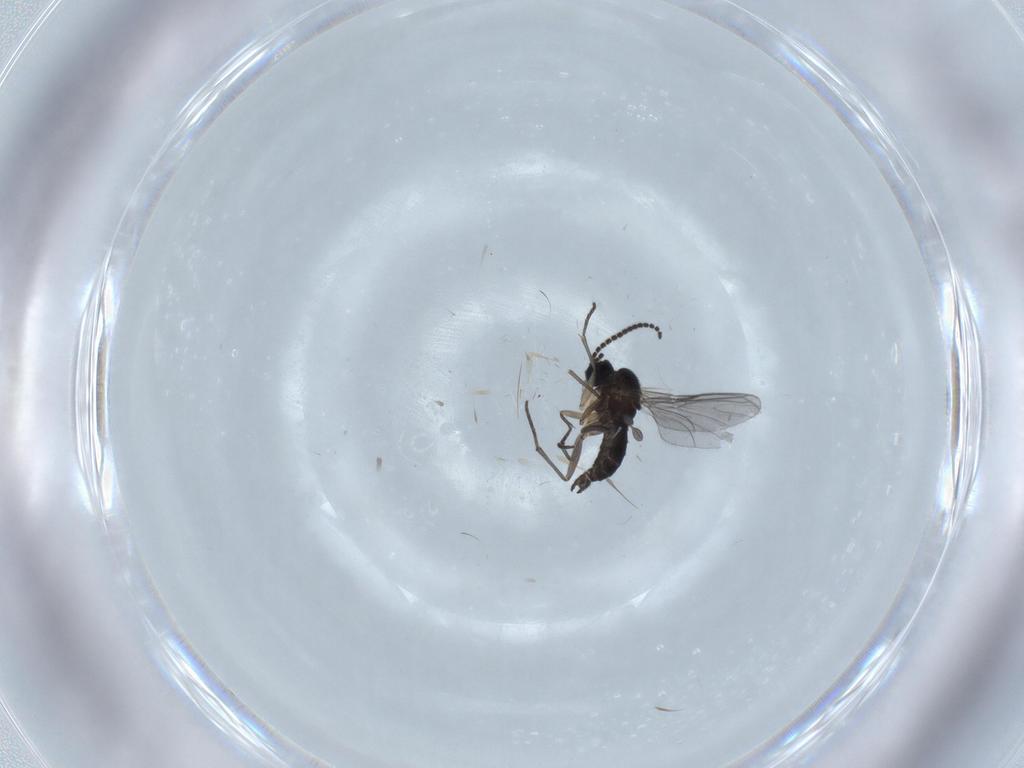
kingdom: Animalia
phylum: Arthropoda
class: Insecta
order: Diptera
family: Sciaridae
